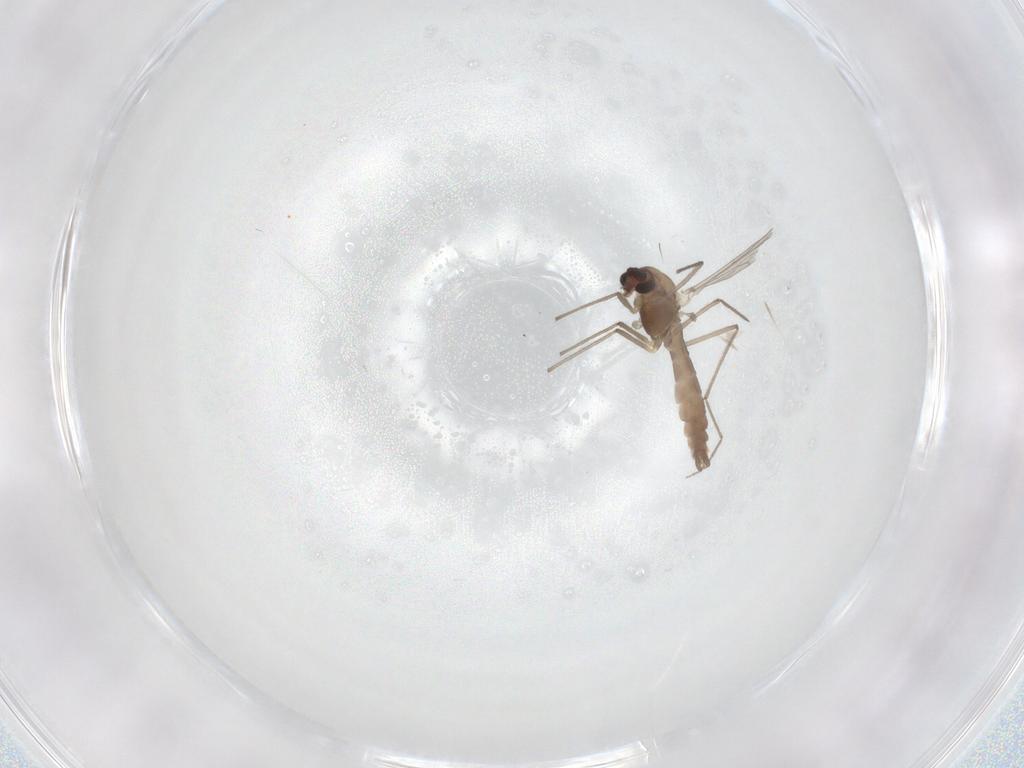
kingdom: Animalia
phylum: Arthropoda
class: Insecta
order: Diptera
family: Chironomidae
